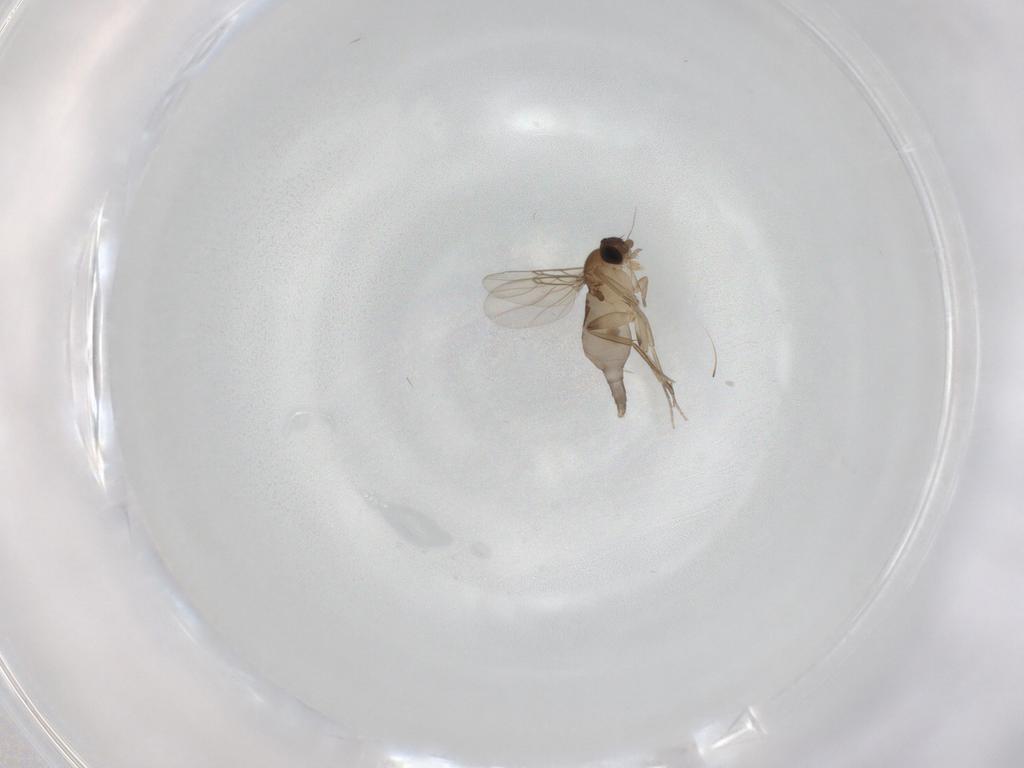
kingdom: Animalia
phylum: Arthropoda
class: Insecta
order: Diptera
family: Phoridae
